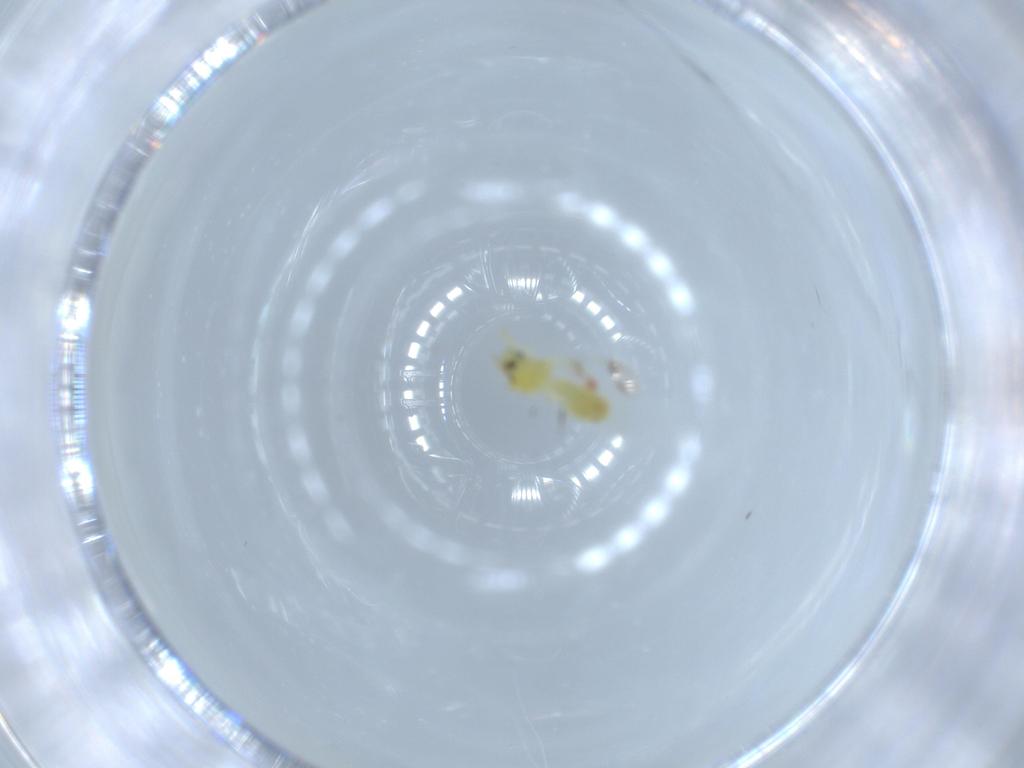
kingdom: Animalia
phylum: Arthropoda
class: Insecta
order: Hemiptera
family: Aleyrodidae
